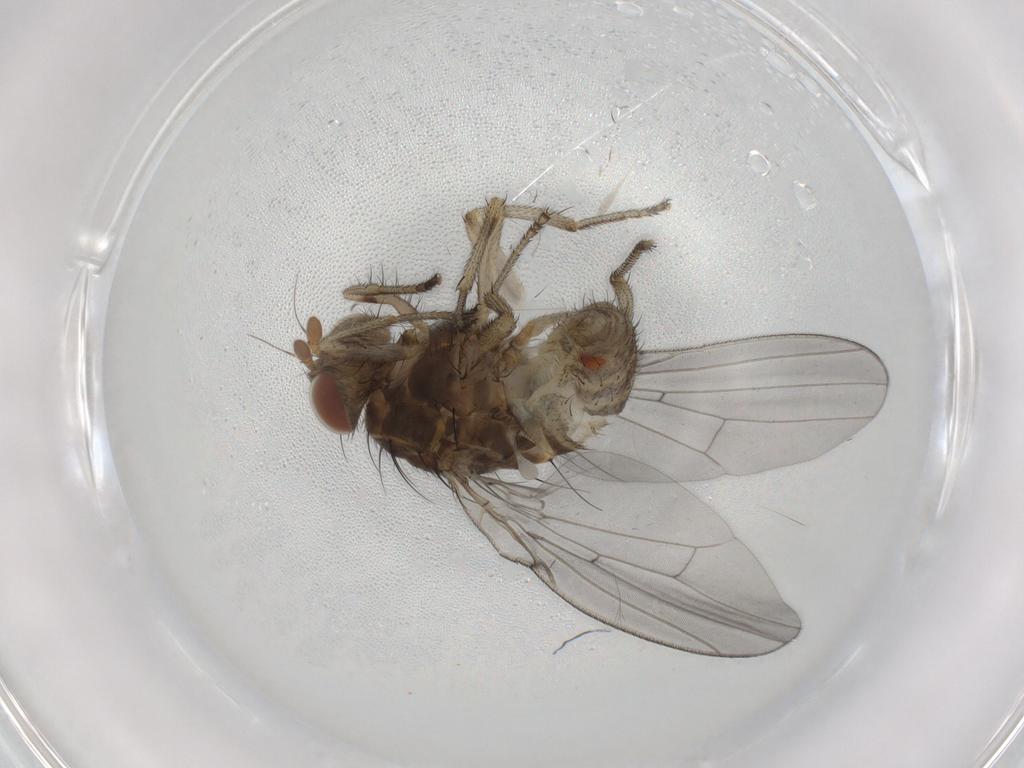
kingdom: Animalia
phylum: Arthropoda
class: Insecta
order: Diptera
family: Lauxaniidae
